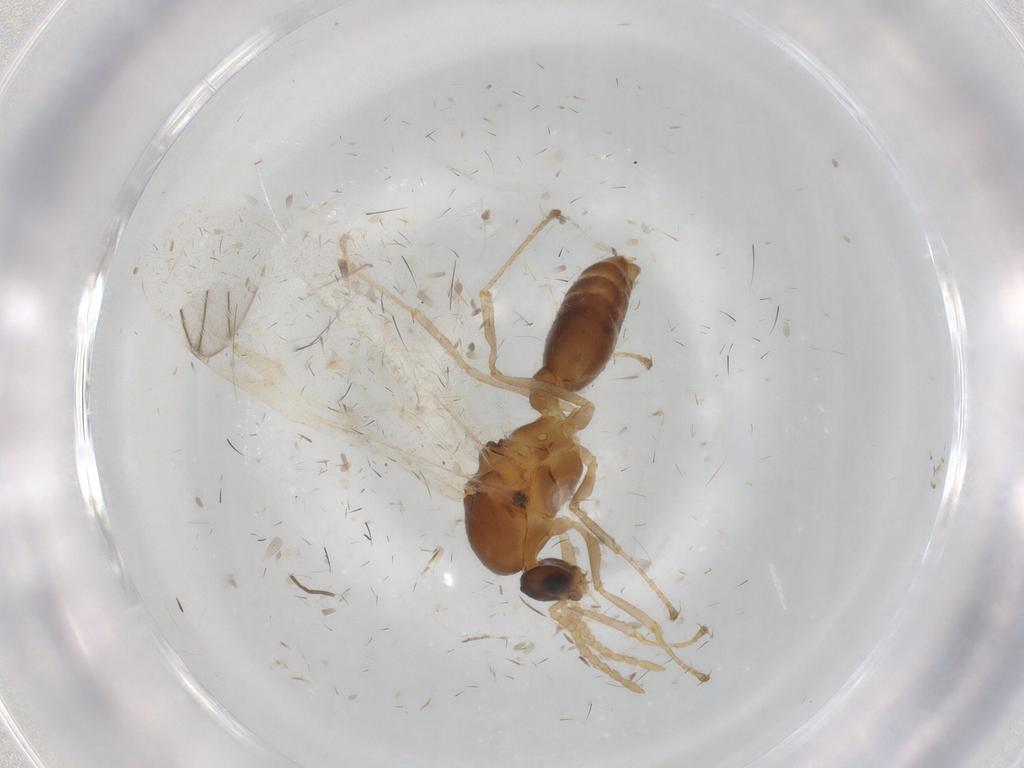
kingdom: Animalia
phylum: Arthropoda
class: Insecta
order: Hymenoptera
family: Formicidae
